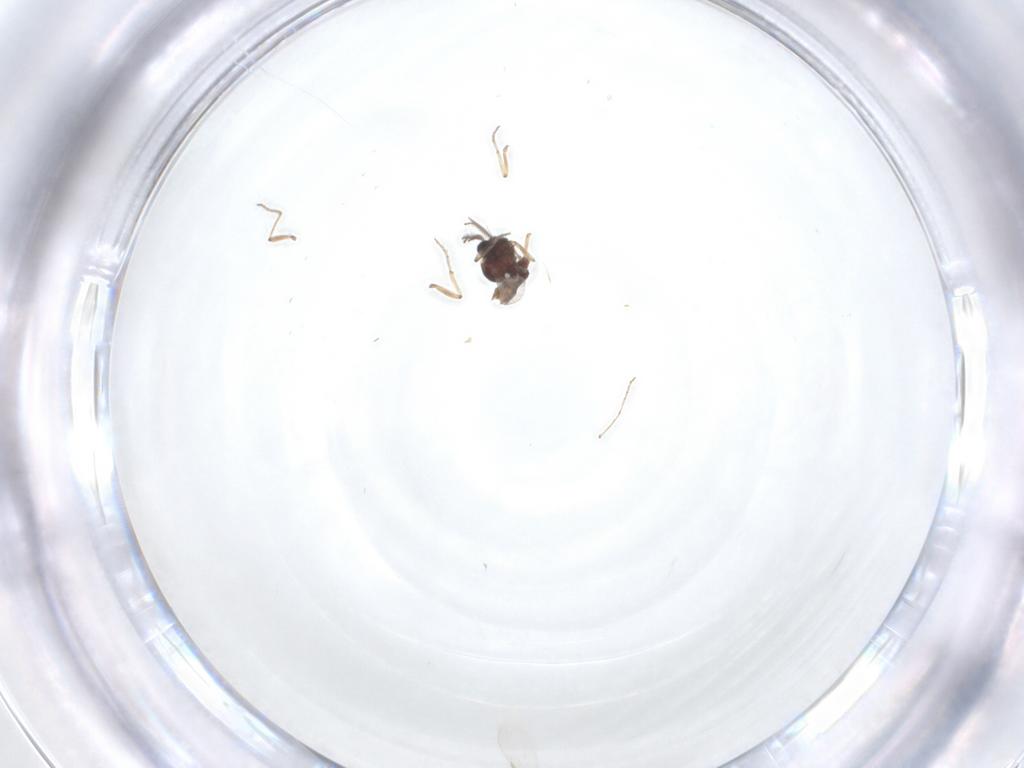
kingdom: Animalia
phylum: Arthropoda
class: Insecta
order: Diptera
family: Ceratopogonidae
